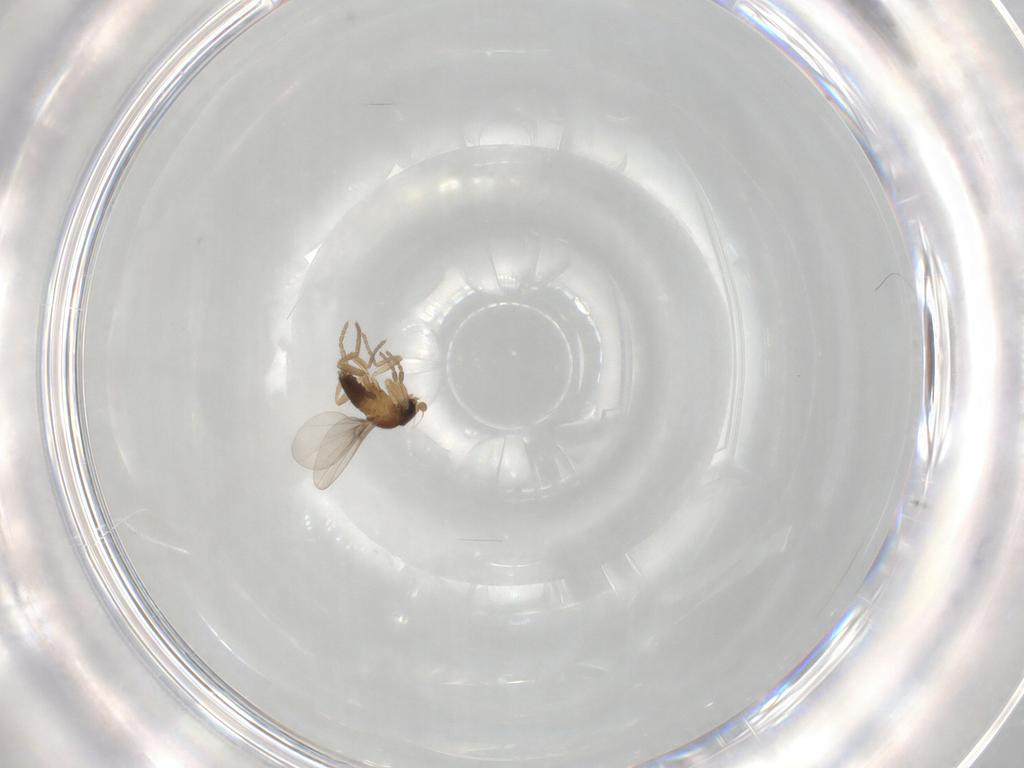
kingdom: Animalia
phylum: Arthropoda
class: Insecta
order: Diptera
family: Phoridae
